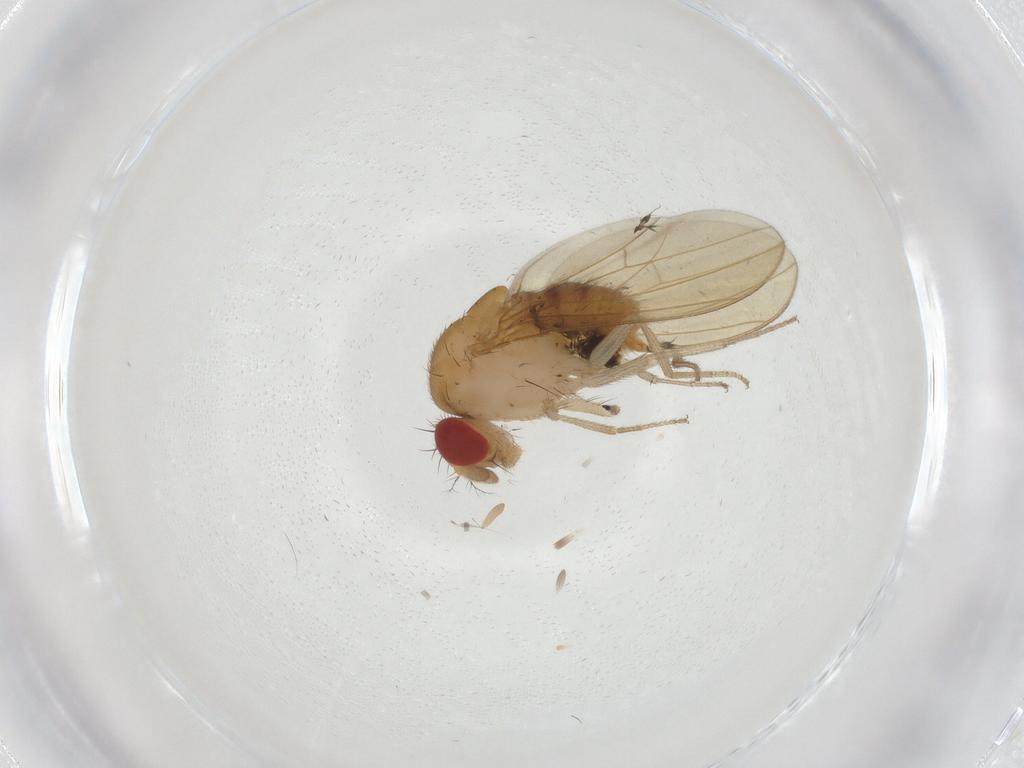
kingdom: Animalia
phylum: Arthropoda
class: Insecta
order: Diptera
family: Drosophilidae
